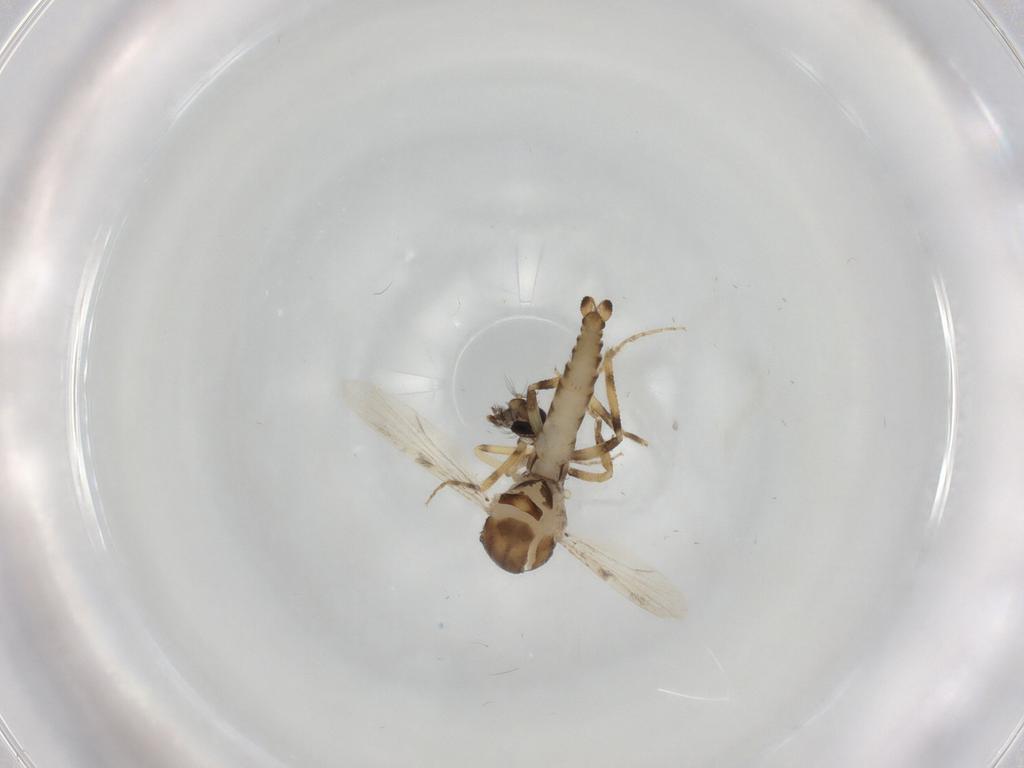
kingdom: Animalia
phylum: Arthropoda
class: Insecta
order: Diptera
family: Ceratopogonidae
